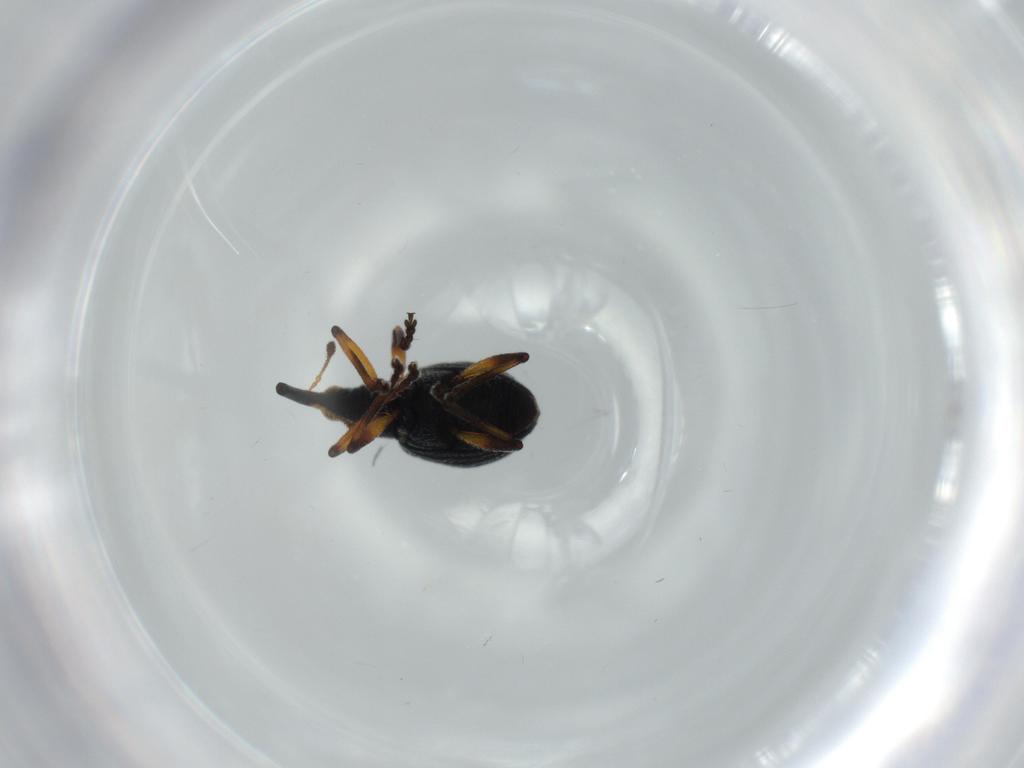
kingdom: Animalia
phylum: Arthropoda
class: Insecta
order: Coleoptera
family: Brentidae
